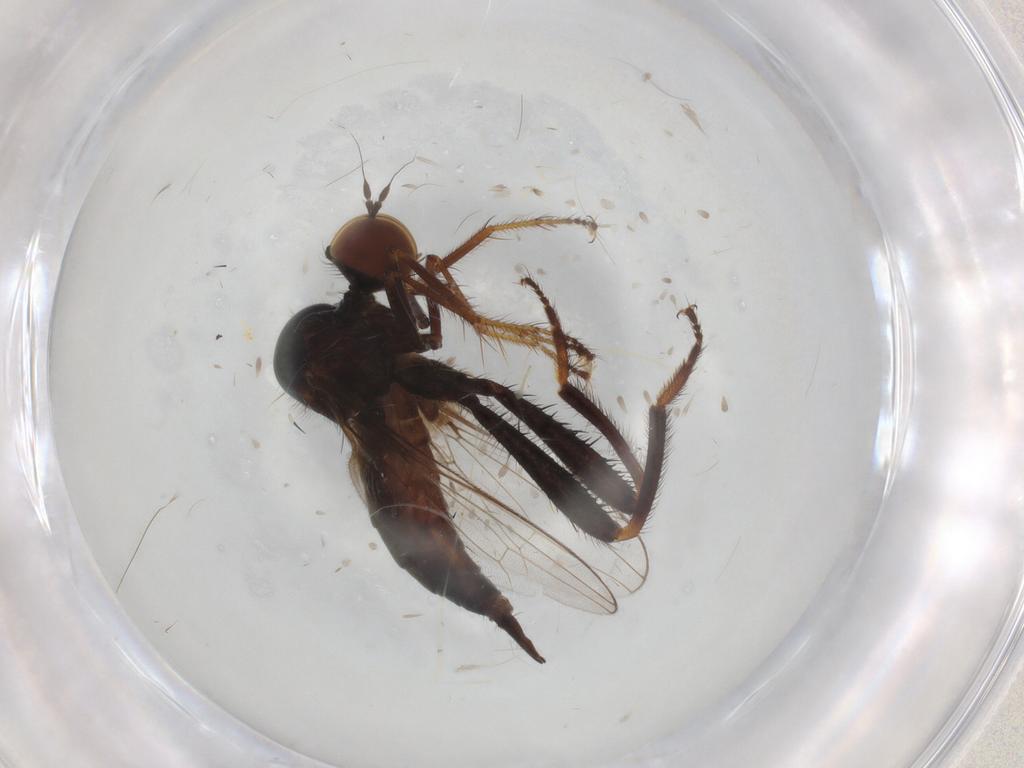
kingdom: Animalia
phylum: Arthropoda
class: Insecta
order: Diptera
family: Hybotidae
